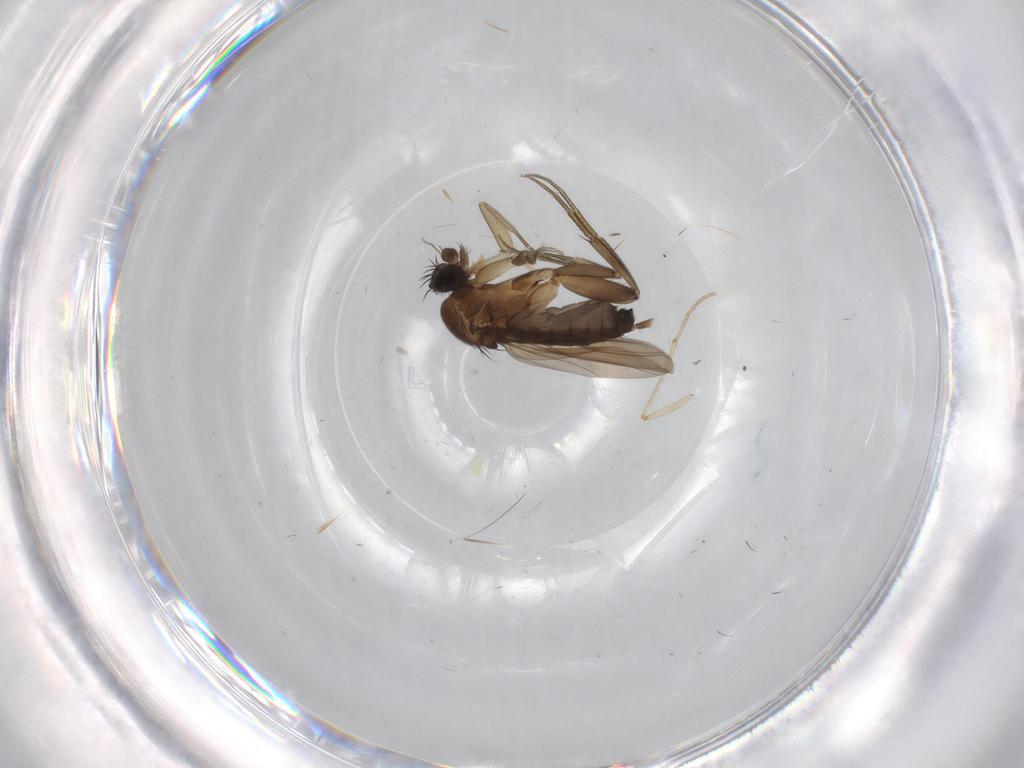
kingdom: Animalia
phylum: Arthropoda
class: Insecta
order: Diptera
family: Phoridae
